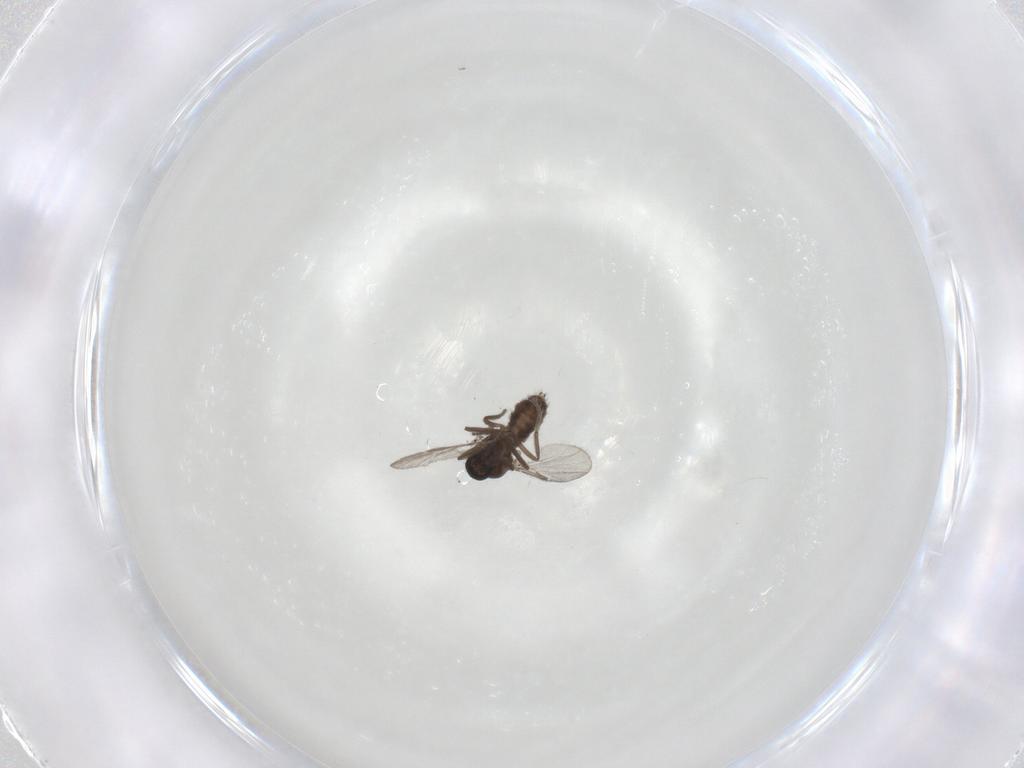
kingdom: Animalia
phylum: Arthropoda
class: Insecta
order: Diptera
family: Ceratopogonidae
